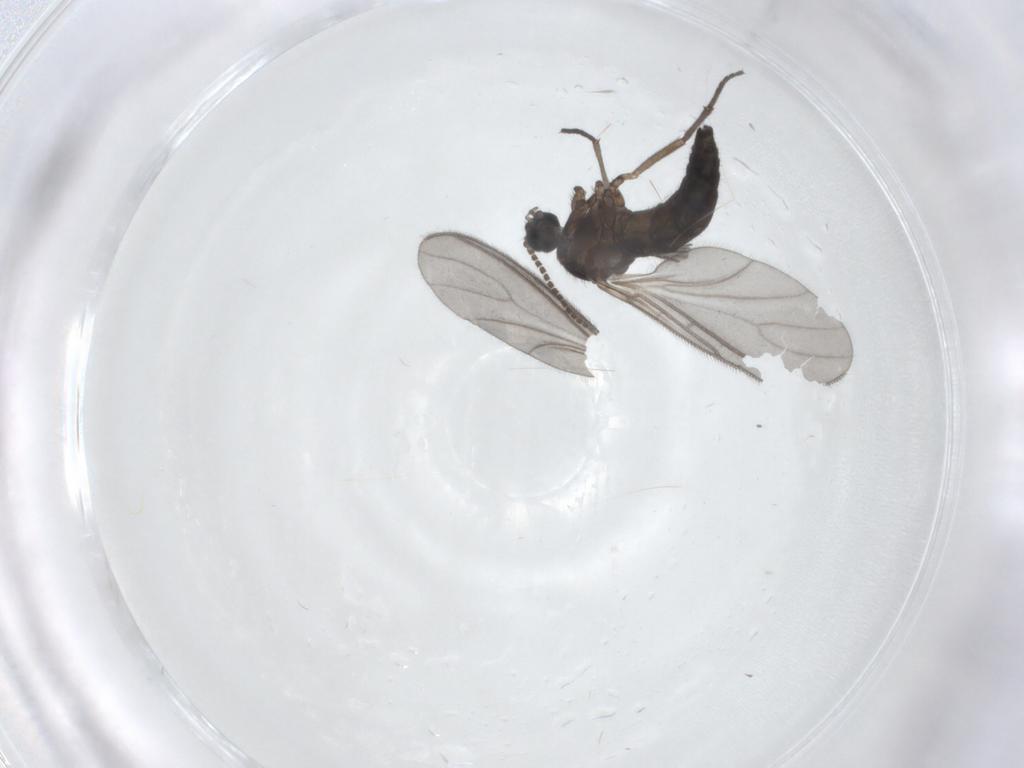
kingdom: Animalia
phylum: Arthropoda
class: Insecta
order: Diptera
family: Sciaridae
